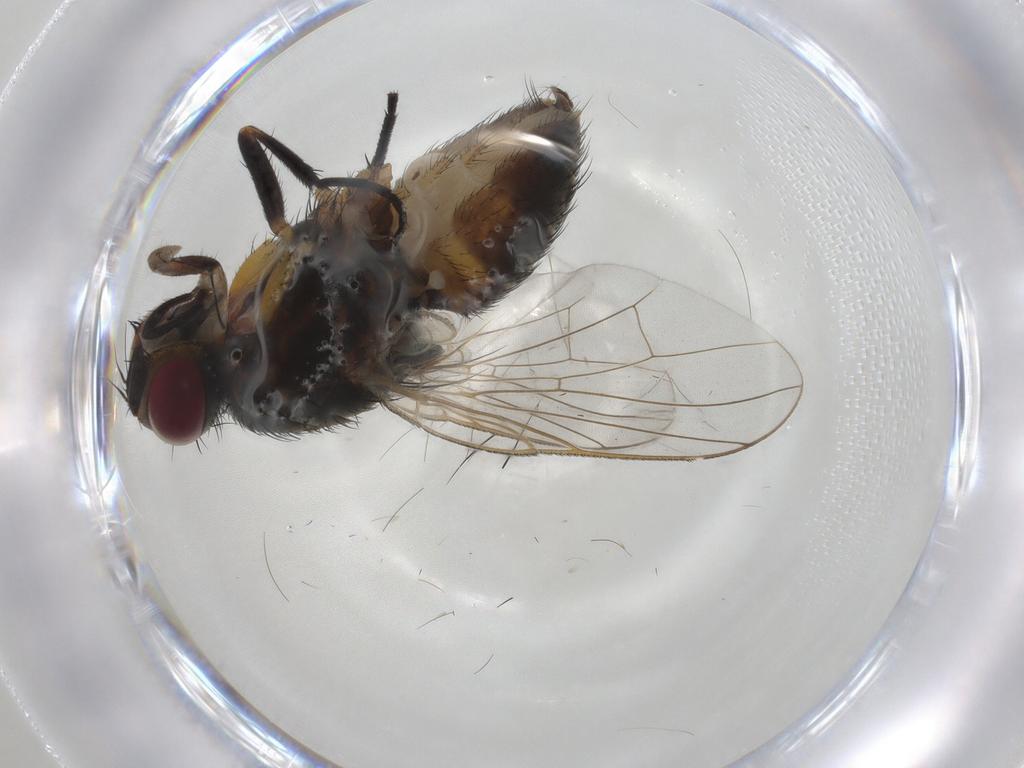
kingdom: Animalia
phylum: Arthropoda
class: Insecta
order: Diptera
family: Muscidae
